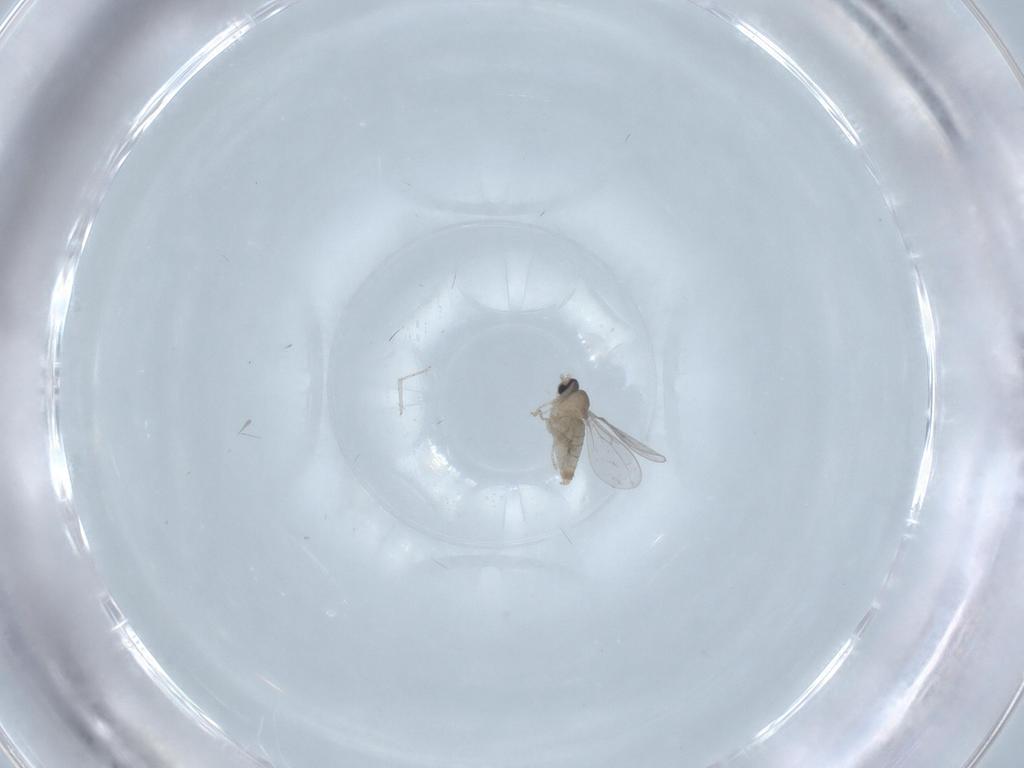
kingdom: Animalia
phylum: Arthropoda
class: Insecta
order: Diptera
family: Cecidomyiidae
